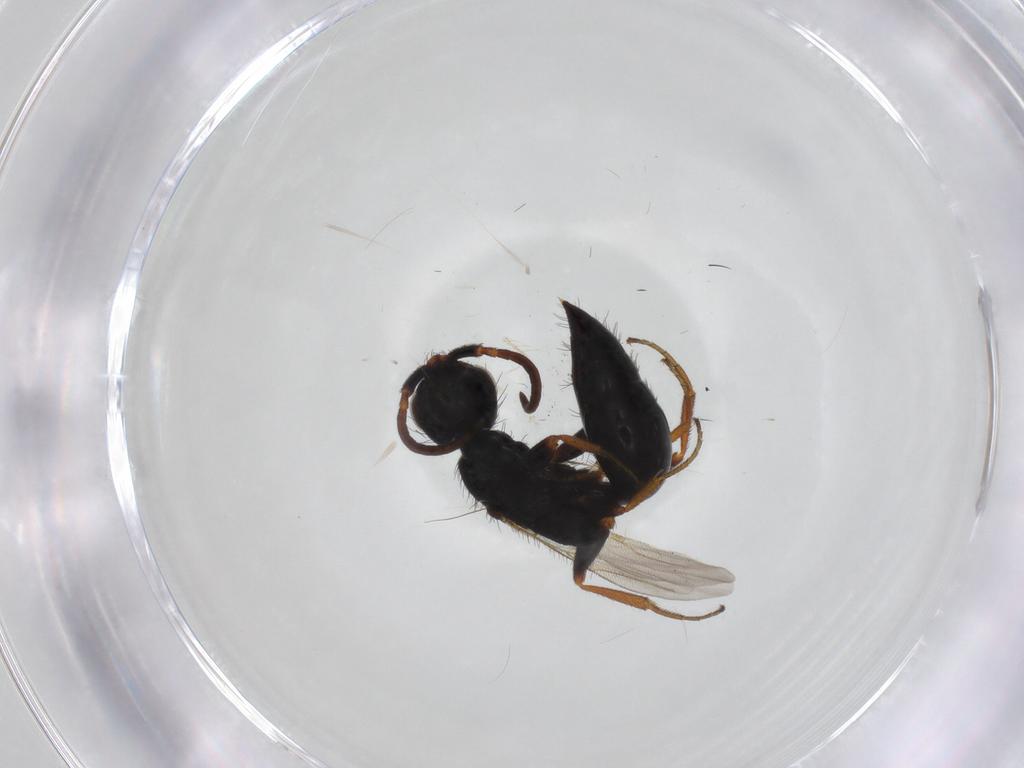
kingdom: Animalia
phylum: Arthropoda
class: Insecta
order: Hymenoptera
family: Bethylidae
